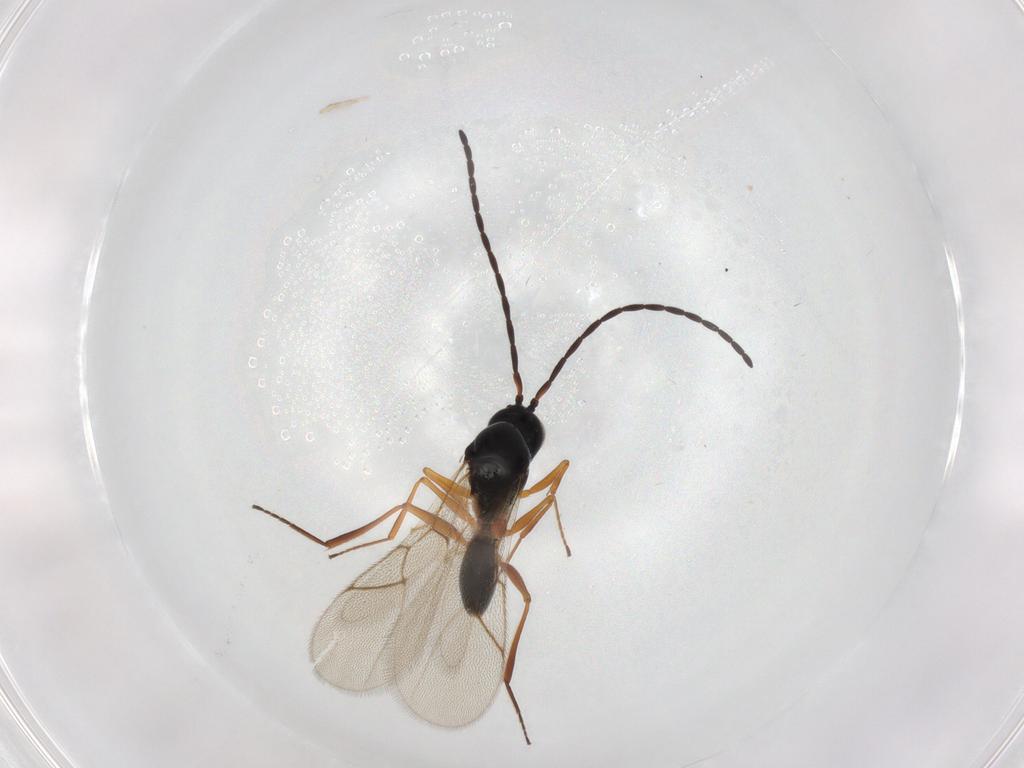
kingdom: Animalia
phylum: Arthropoda
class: Insecta
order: Hymenoptera
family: Figitidae
